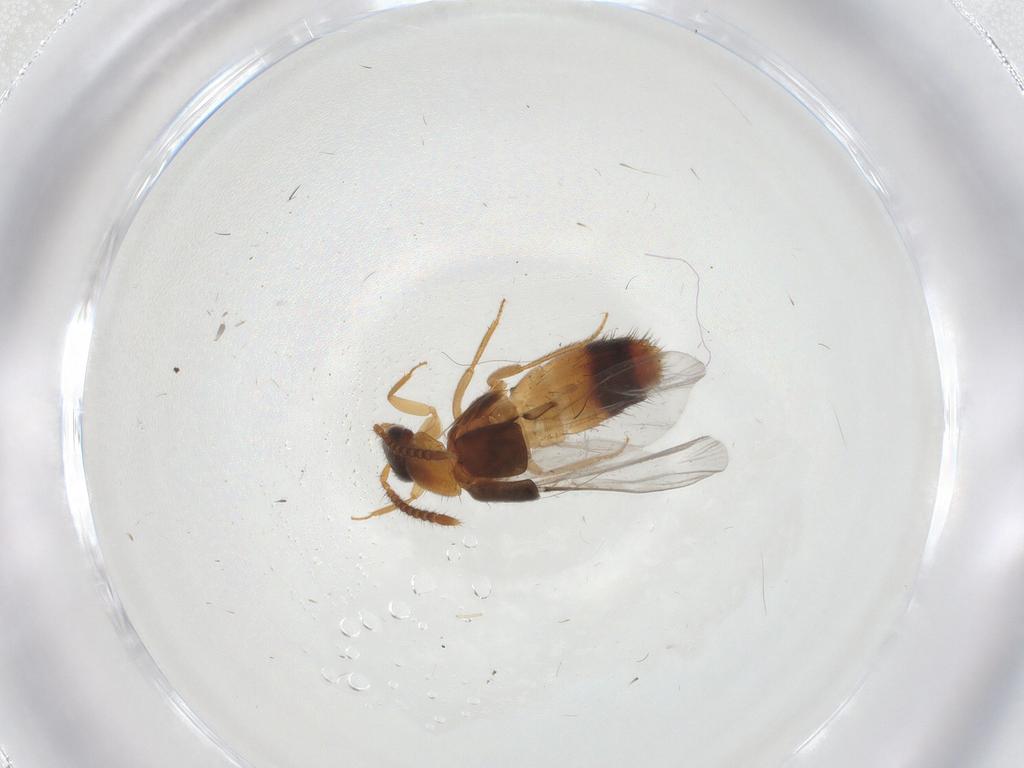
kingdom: Animalia
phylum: Arthropoda
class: Insecta
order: Coleoptera
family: Staphylinidae
